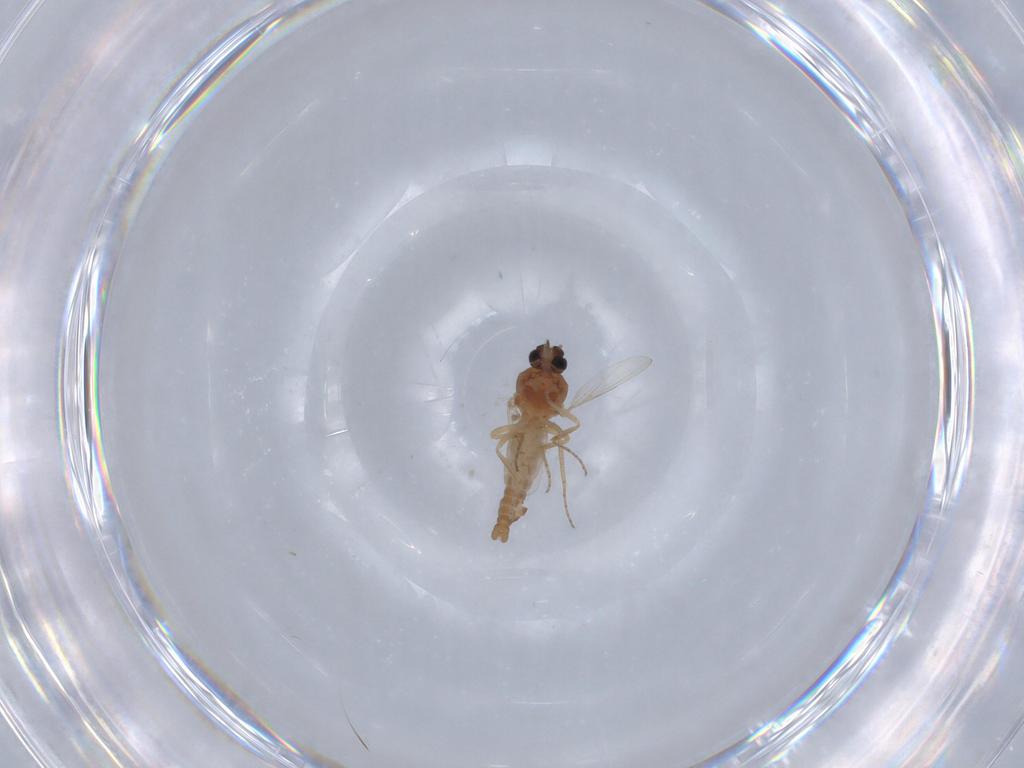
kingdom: Animalia
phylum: Arthropoda
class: Insecta
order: Diptera
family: Ceratopogonidae
